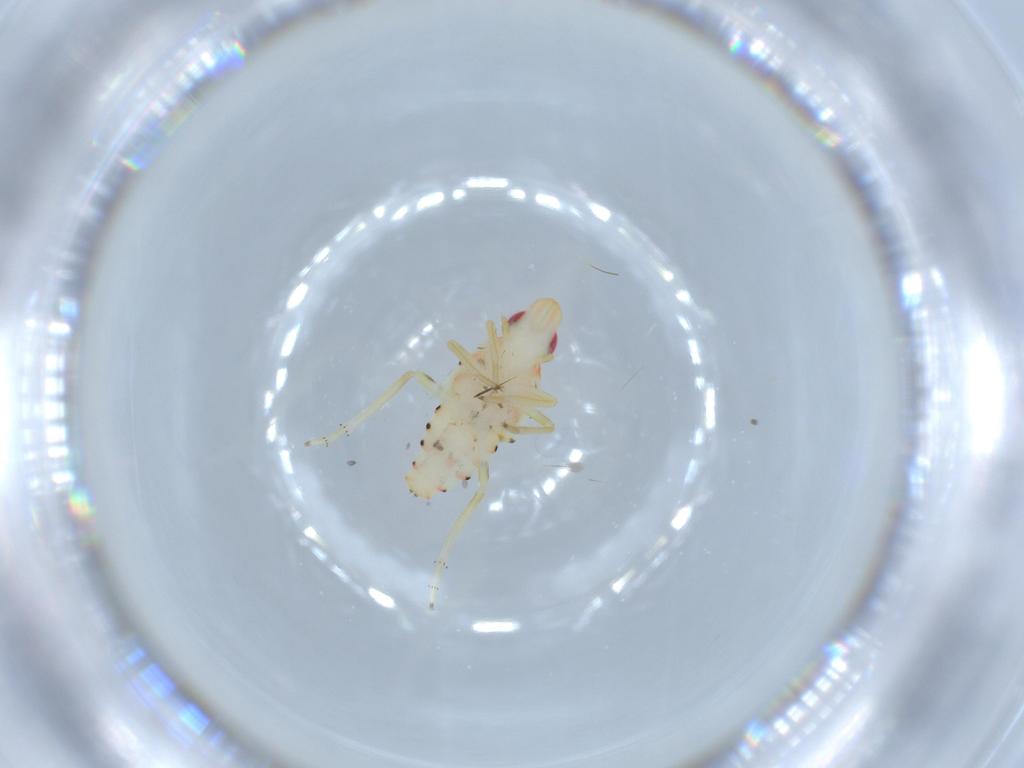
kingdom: Animalia
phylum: Arthropoda
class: Insecta
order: Hemiptera
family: Tropiduchidae
